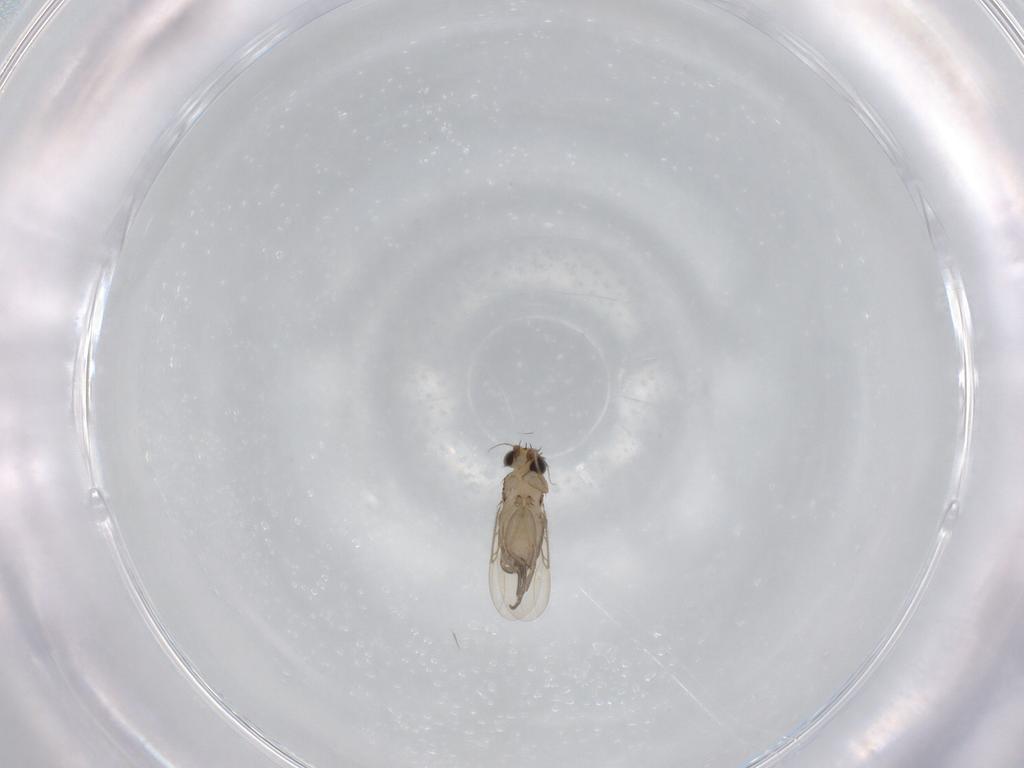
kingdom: Animalia
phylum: Arthropoda
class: Insecta
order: Diptera
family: Phoridae
